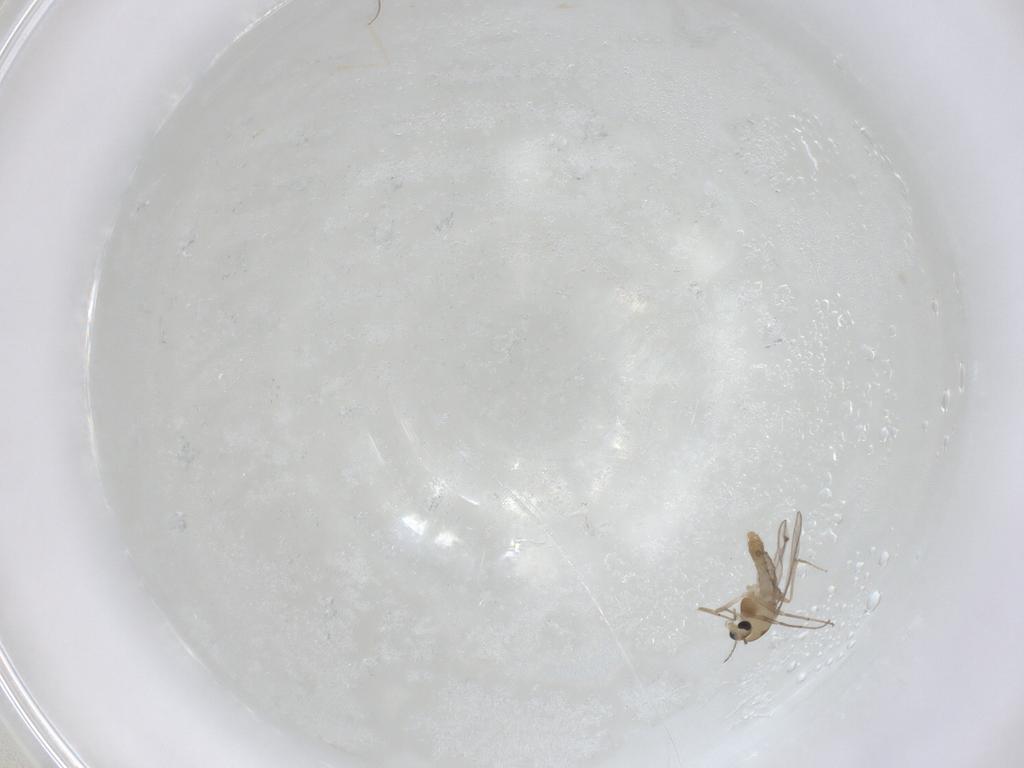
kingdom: Animalia
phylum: Arthropoda
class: Insecta
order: Diptera
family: Chironomidae
